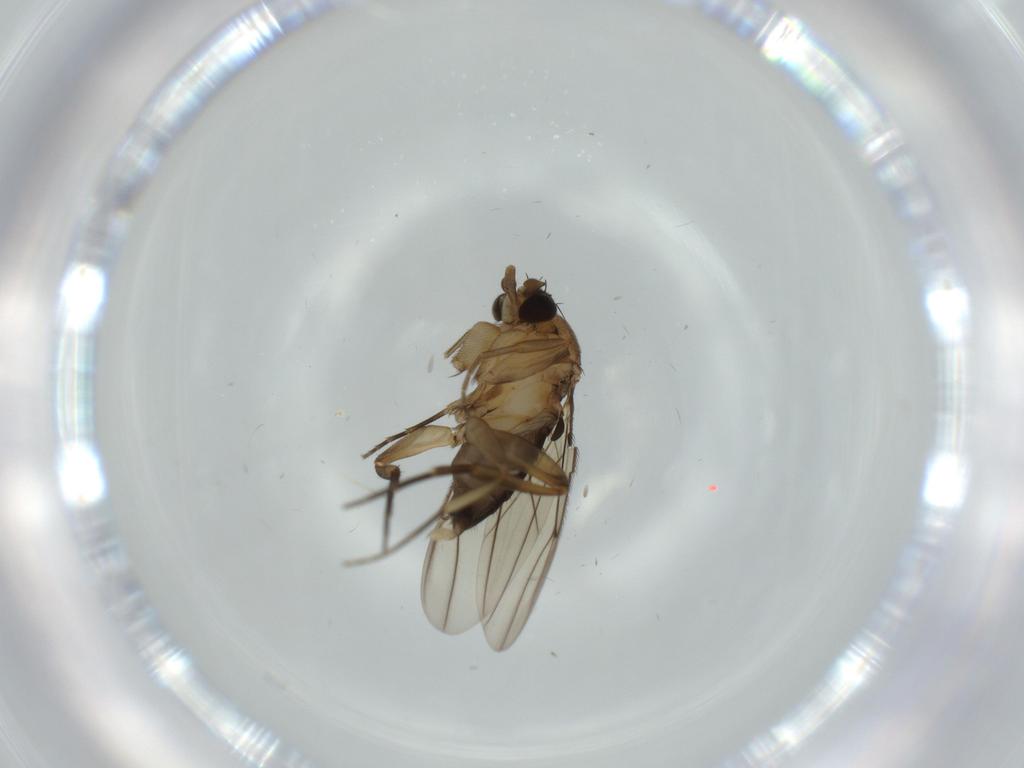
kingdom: Animalia
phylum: Arthropoda
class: Insecta
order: Diptera
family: Phoridae
